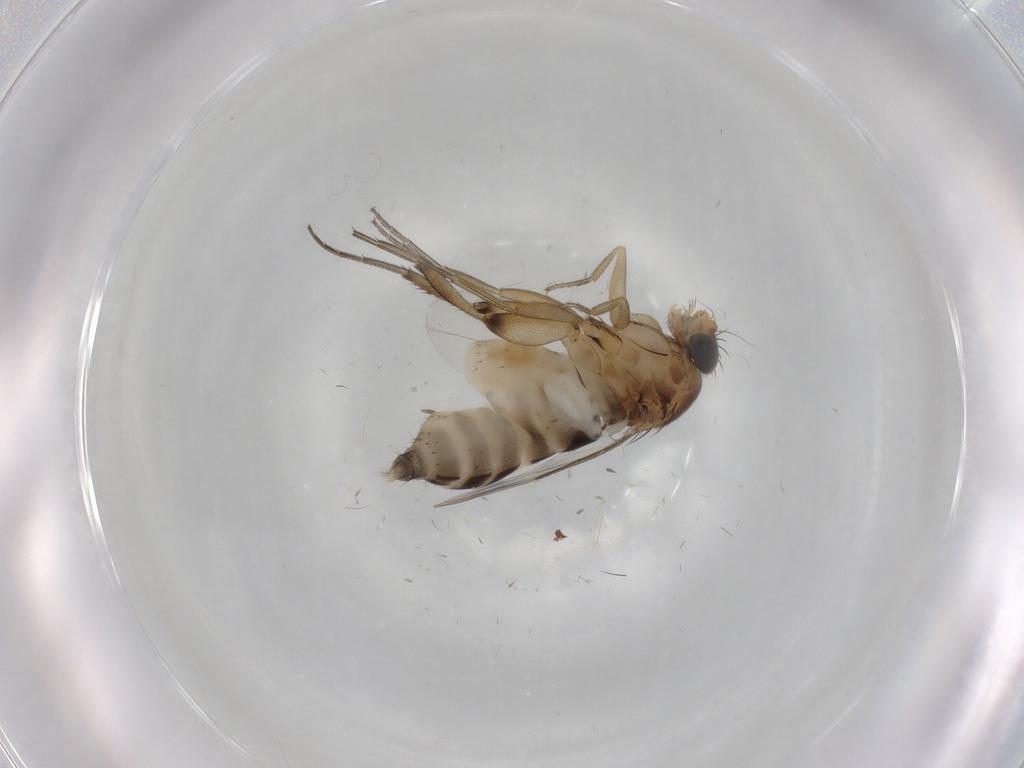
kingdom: Animalia
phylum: Arthropoda
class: Insecta
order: Diptera
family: Phoridae
